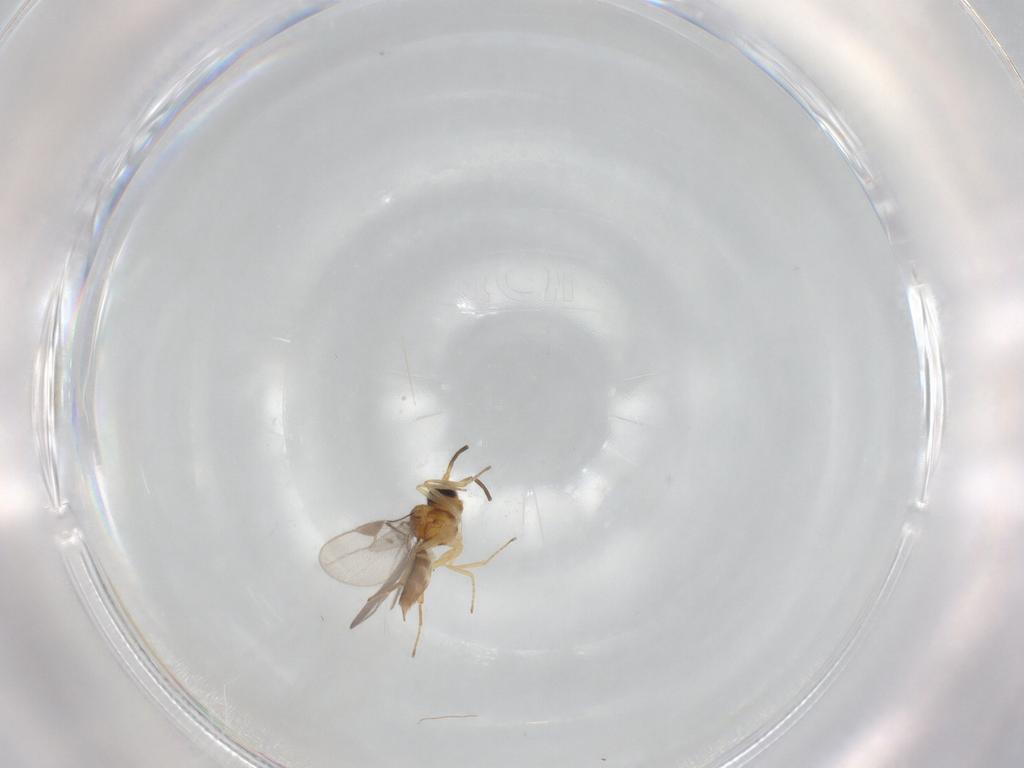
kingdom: Animalia
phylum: Arthropoda
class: Insecta
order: Hymenoptera
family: Braconidae
